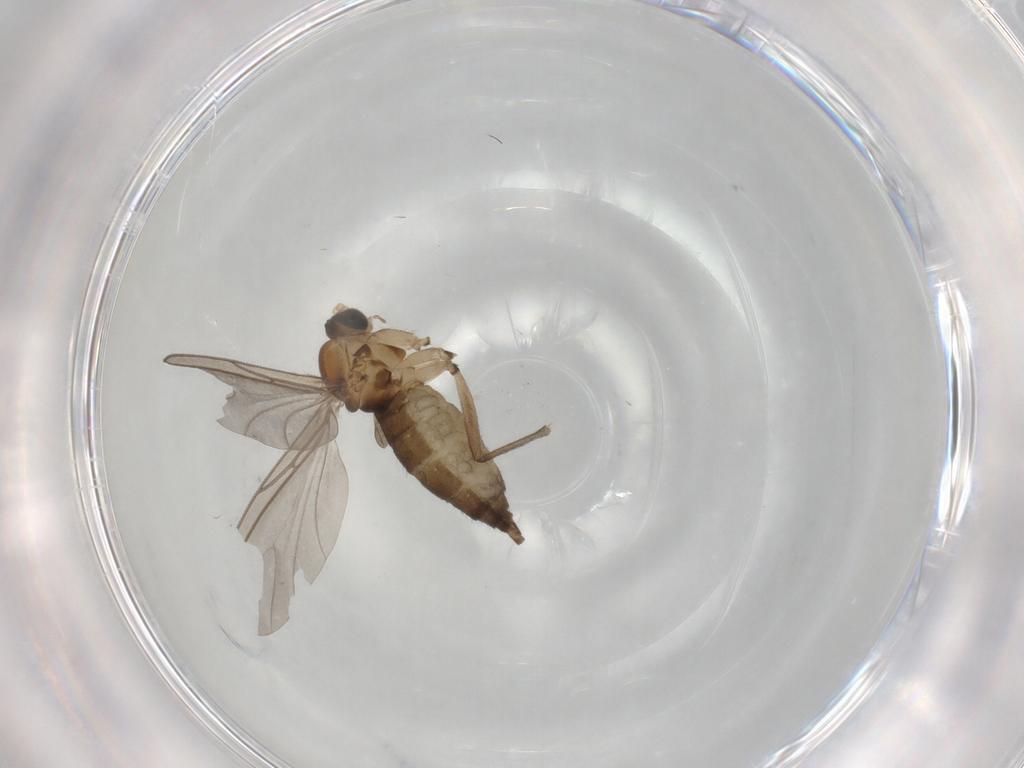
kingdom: Animalia
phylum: Arthropoda
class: Insecta
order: Diptera
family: Sciaridae
